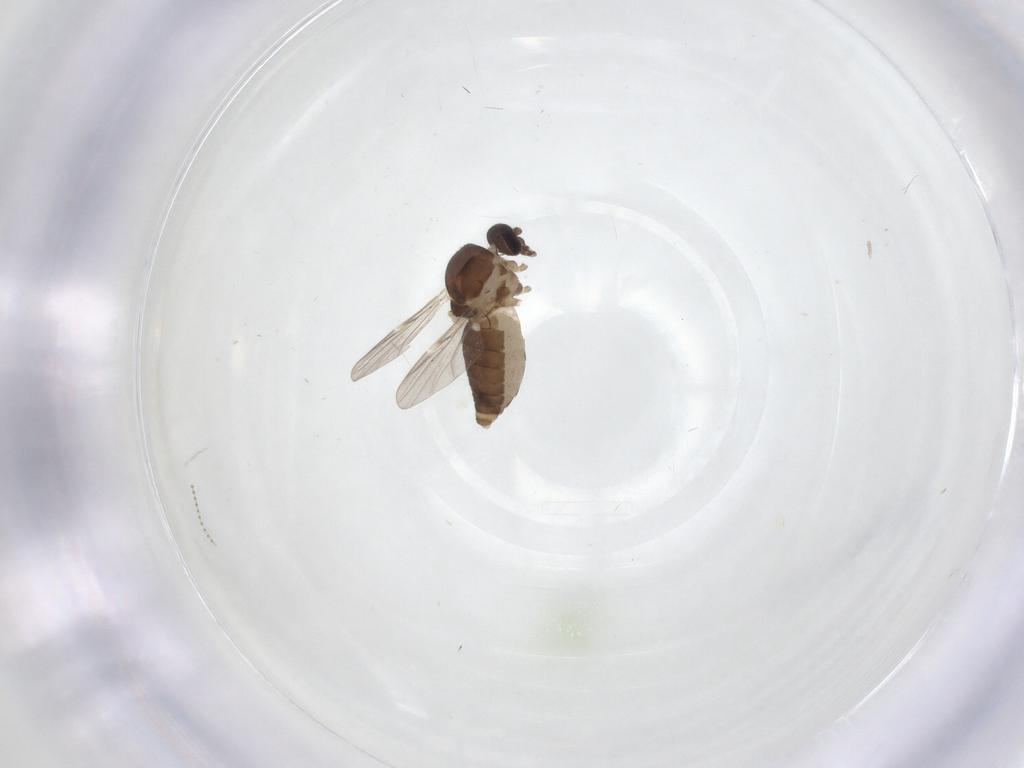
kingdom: Animalia
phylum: Arthropoda
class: Insecta
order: Diptera
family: Ceratopogonidae
